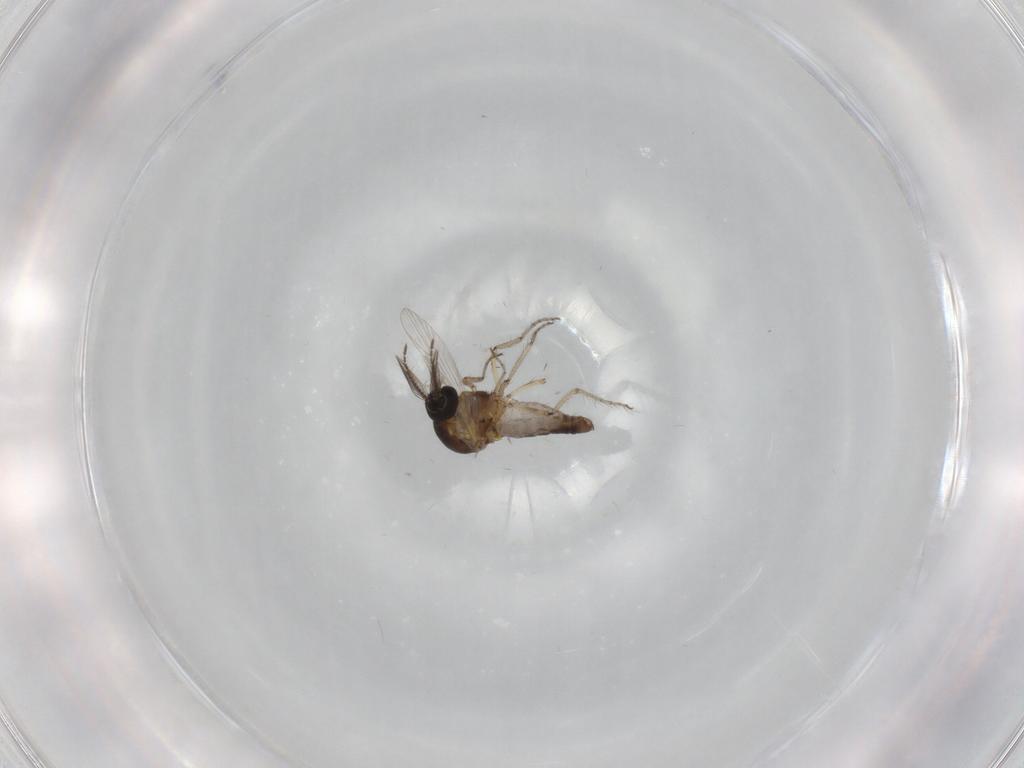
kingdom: Animalia
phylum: Arthropoda
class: Insecta
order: Diptera
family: Ceratopogonidae
